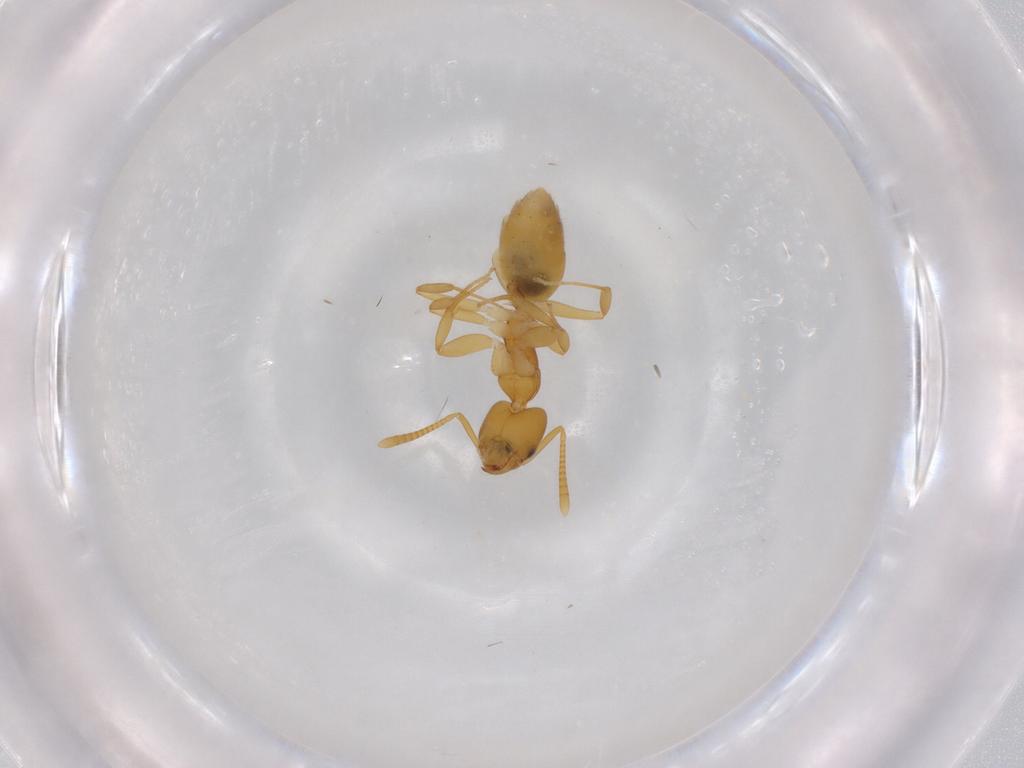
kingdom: Animalia
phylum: Arthropoda
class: Insecta
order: Hymenoptera
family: Formicidae
